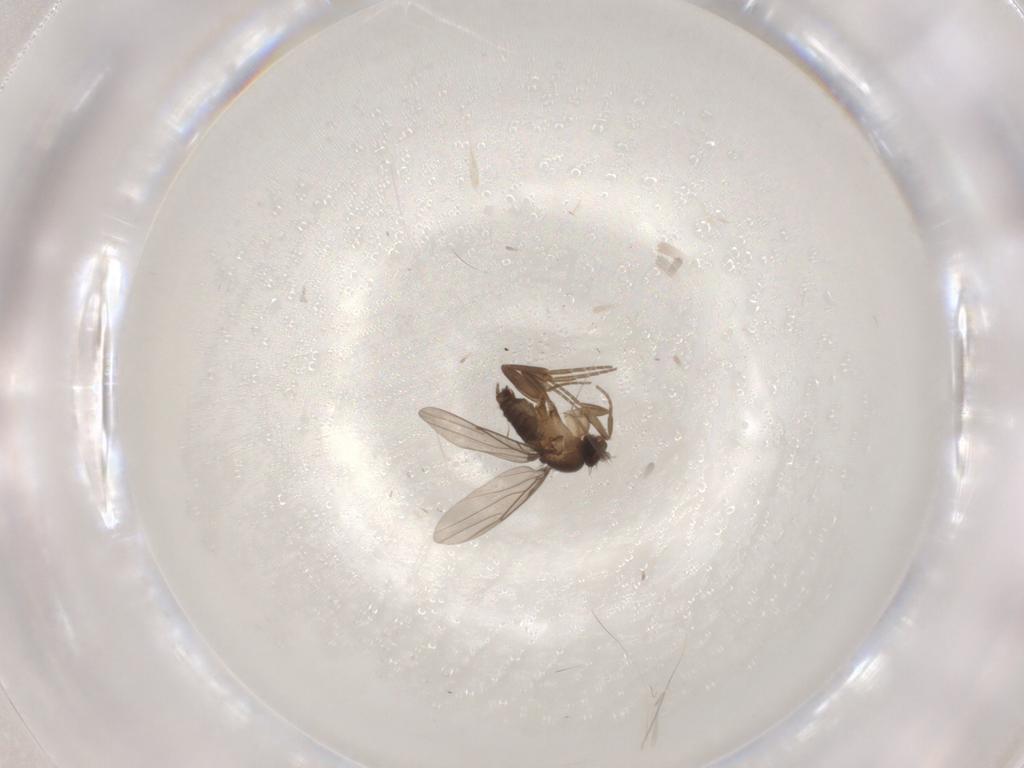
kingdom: Animalia
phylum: Arthropoda
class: Insecta
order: Diptera
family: Phoridae
